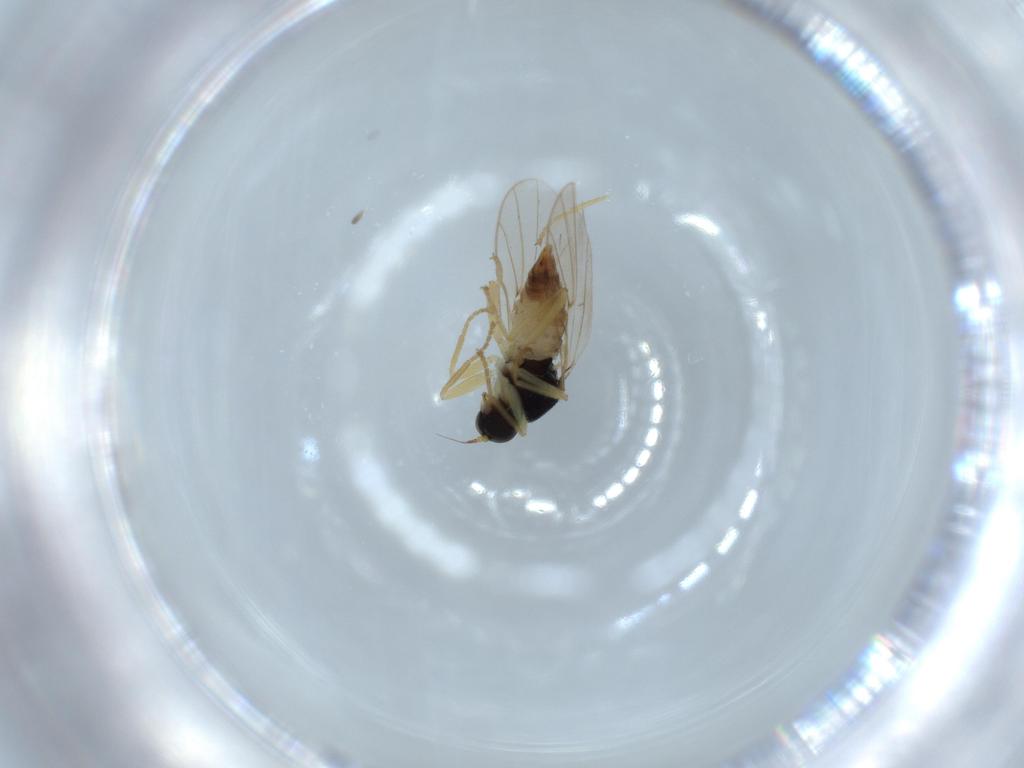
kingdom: Animalia
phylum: Arthropoda
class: Insecta
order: Diptera
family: Hybotidae
